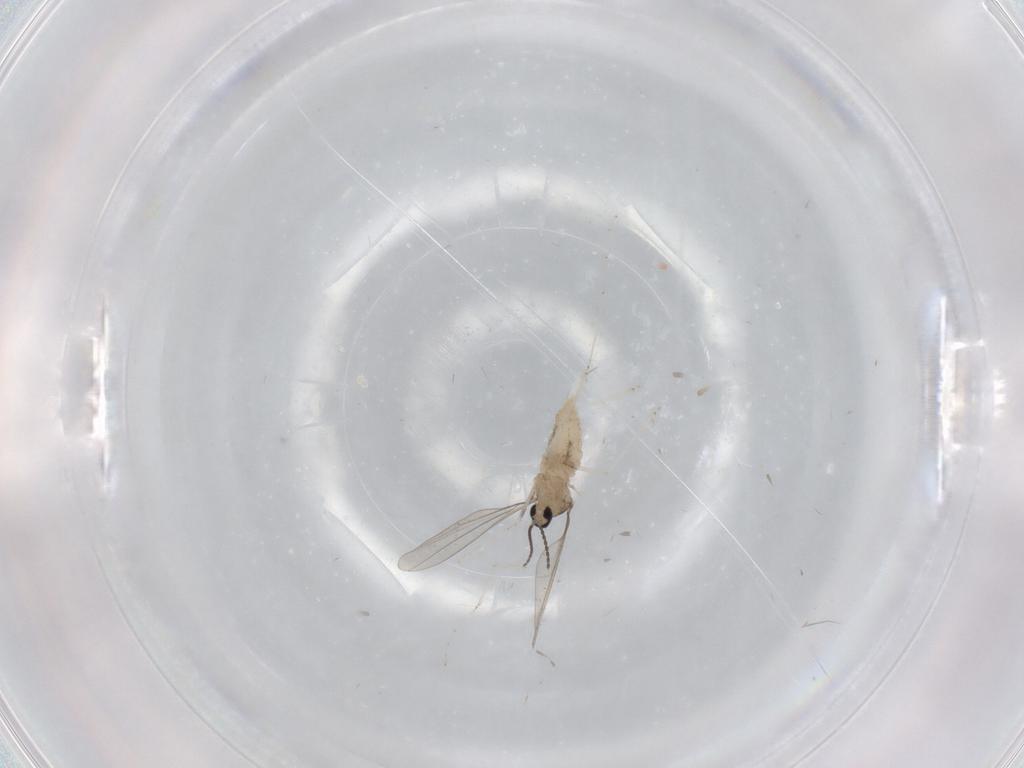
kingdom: Animalia
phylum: Arthropoda
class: Insecta
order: Diptera
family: Cecidomyiidae
